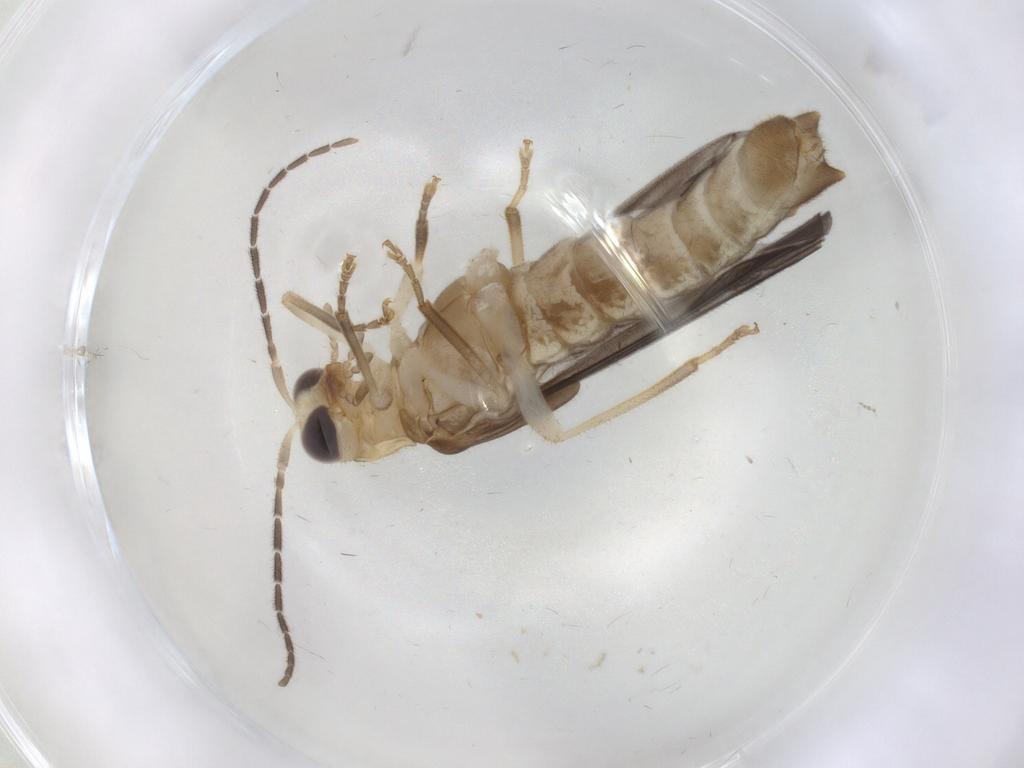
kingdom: Animalia
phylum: Arthropoda
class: Insecta
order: Coleoptera
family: Cantharidae
